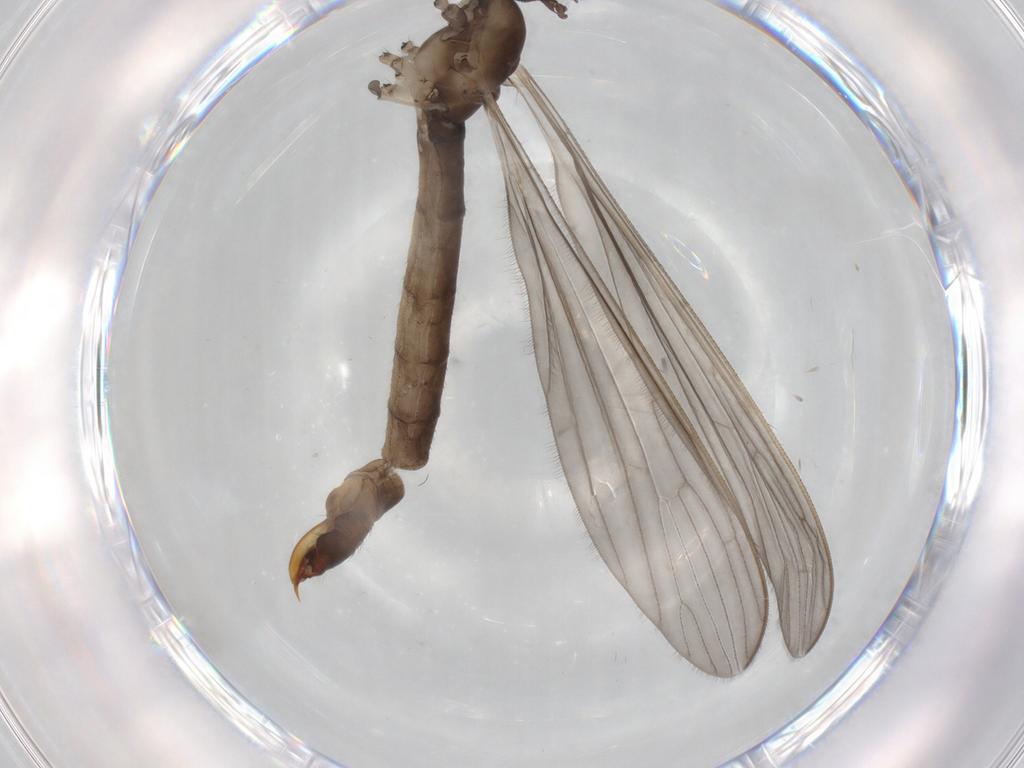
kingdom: Animalia
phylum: Arthropoda
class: Insecta
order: Diptera
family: Limoniidae
